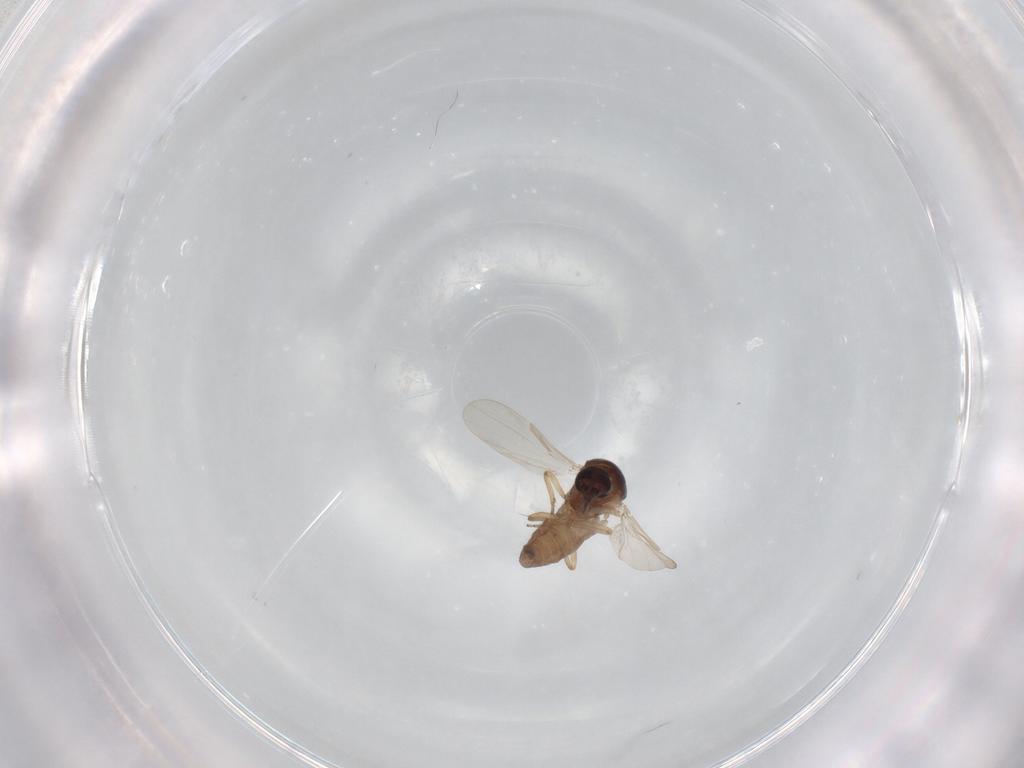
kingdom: Animalia
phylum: Arthropoda
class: Insecta
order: Diptera
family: Ceratopogonidae
